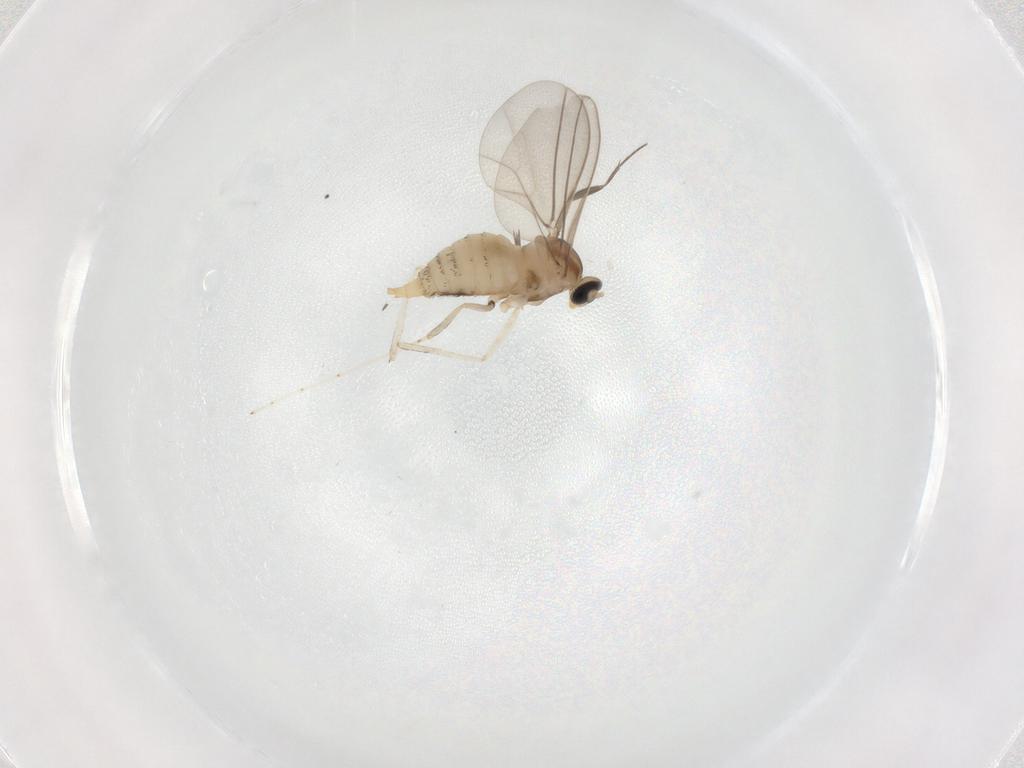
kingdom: Animalia
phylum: Arthropoda
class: Insecta
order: Diptera
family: Cecidomyiidae
